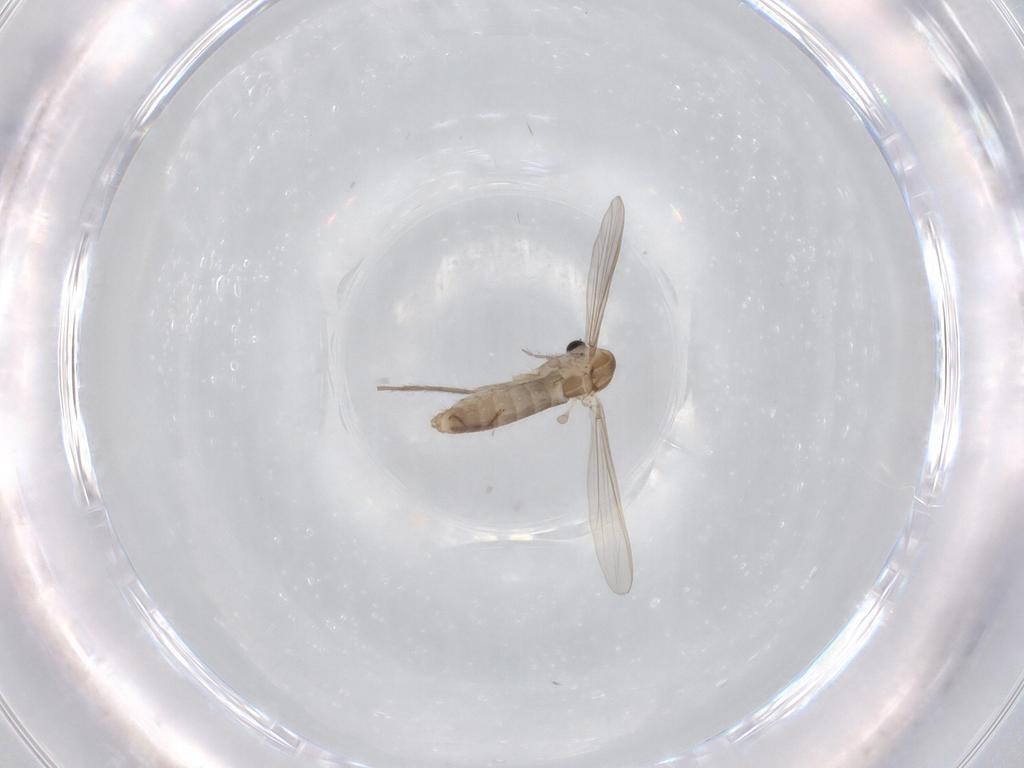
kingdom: Animalia
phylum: Arthropoda
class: Insecta
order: Diptera
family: Chironomidae
